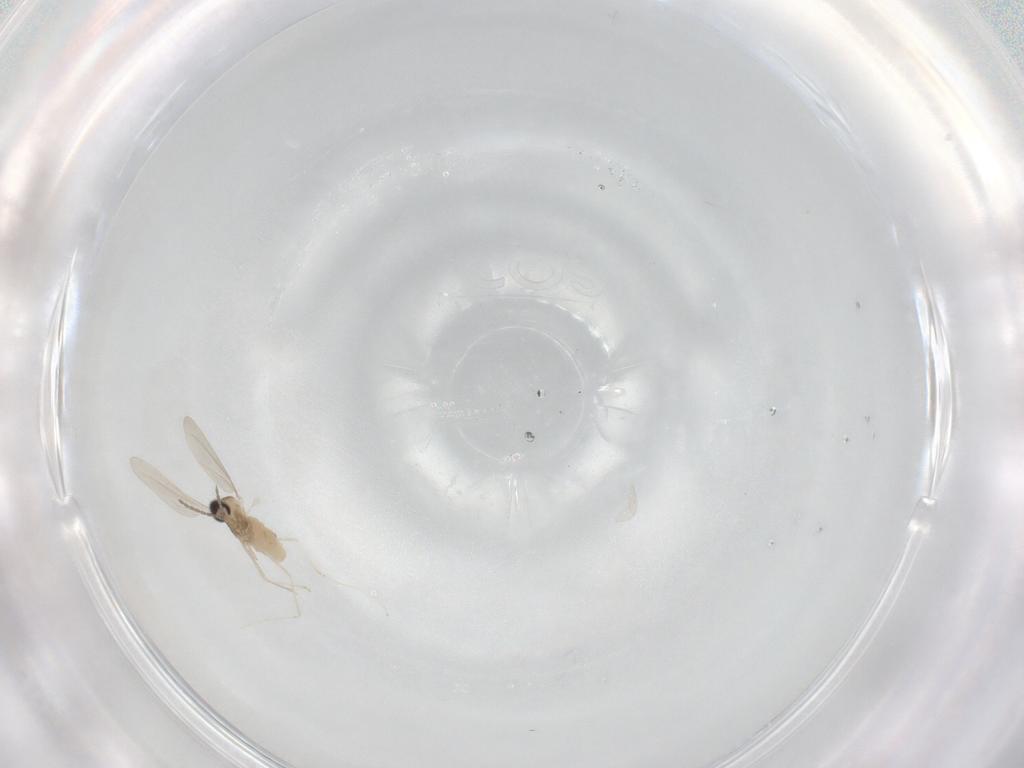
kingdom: Animalia
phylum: Arthropoda
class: Insecta
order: Diptera
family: Cecidomyiidae
